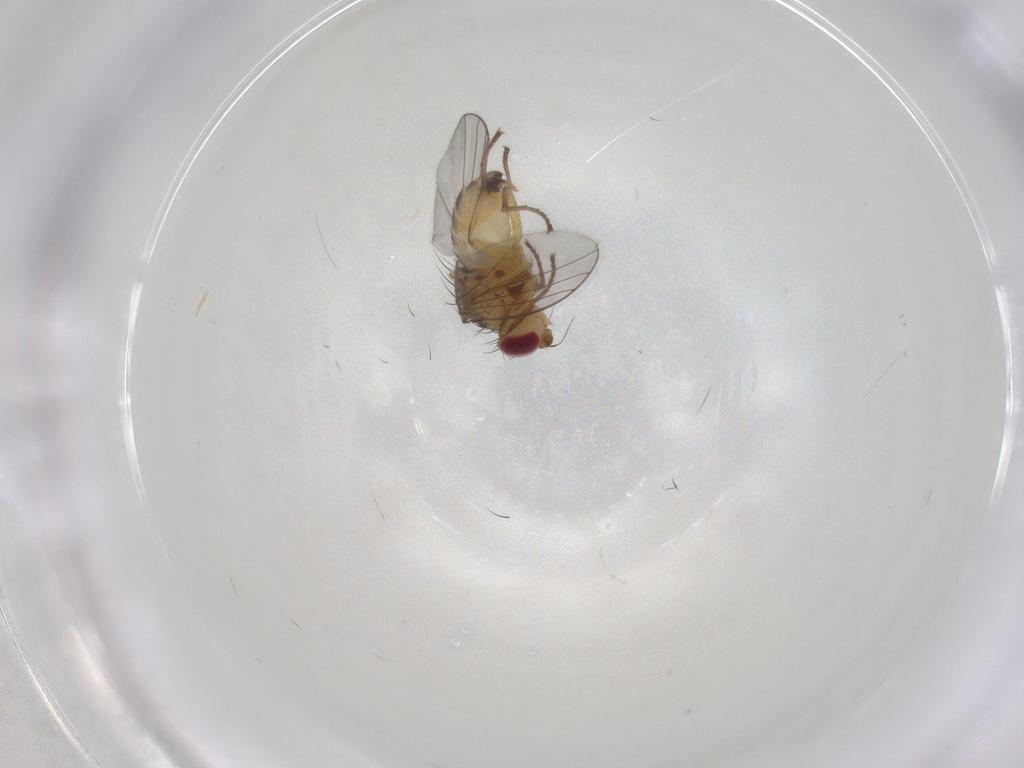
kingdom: Animalia
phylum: Arthropoda
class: Insecta
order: Diptera
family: Agromyzidae
